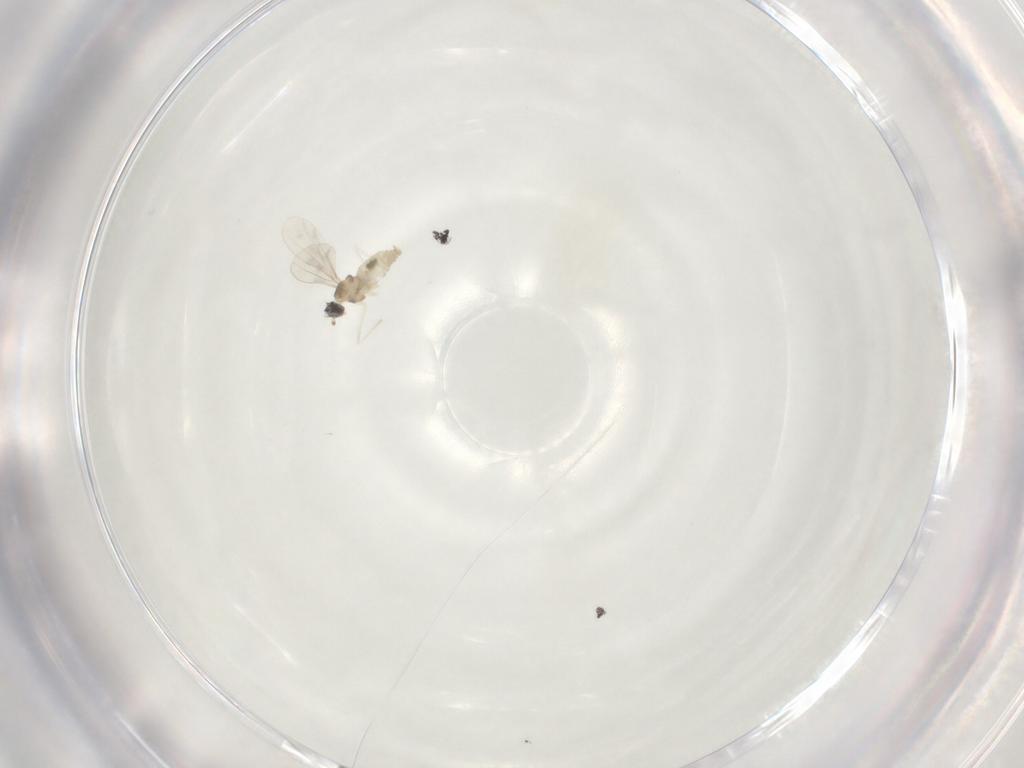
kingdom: Animalia
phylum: Arthropoda
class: Insecta
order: Diptera
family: Cecidomyiidae
